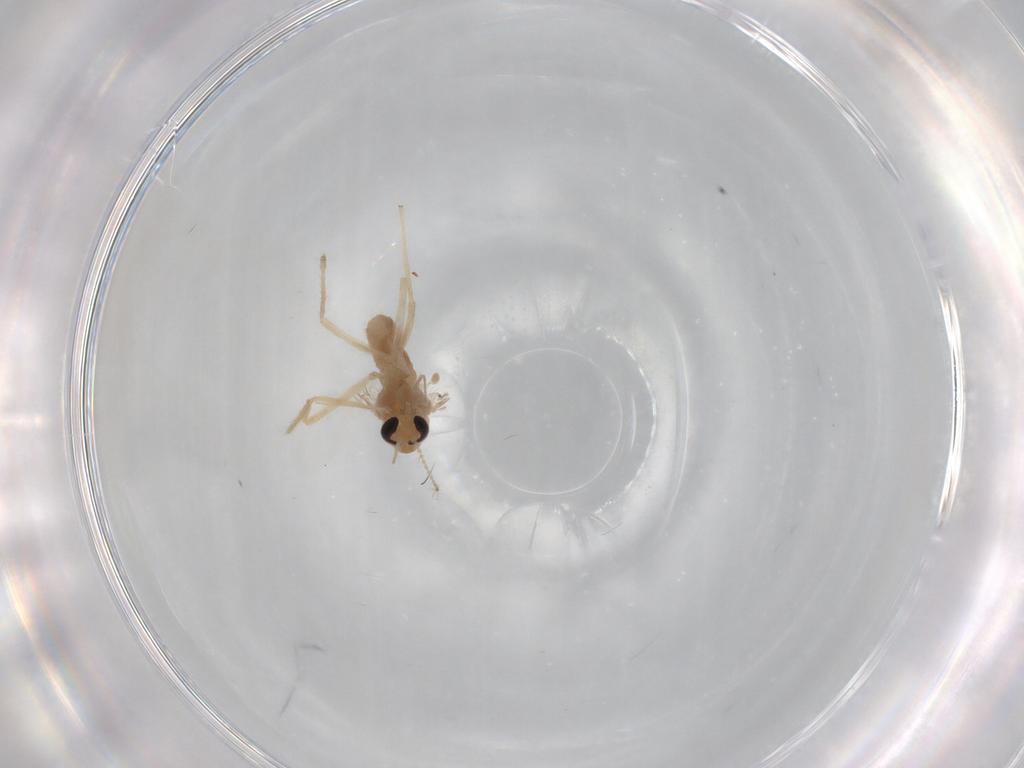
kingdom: Animalia
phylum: Arthropoda
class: Insecta
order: Diptera
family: Chironomidae
